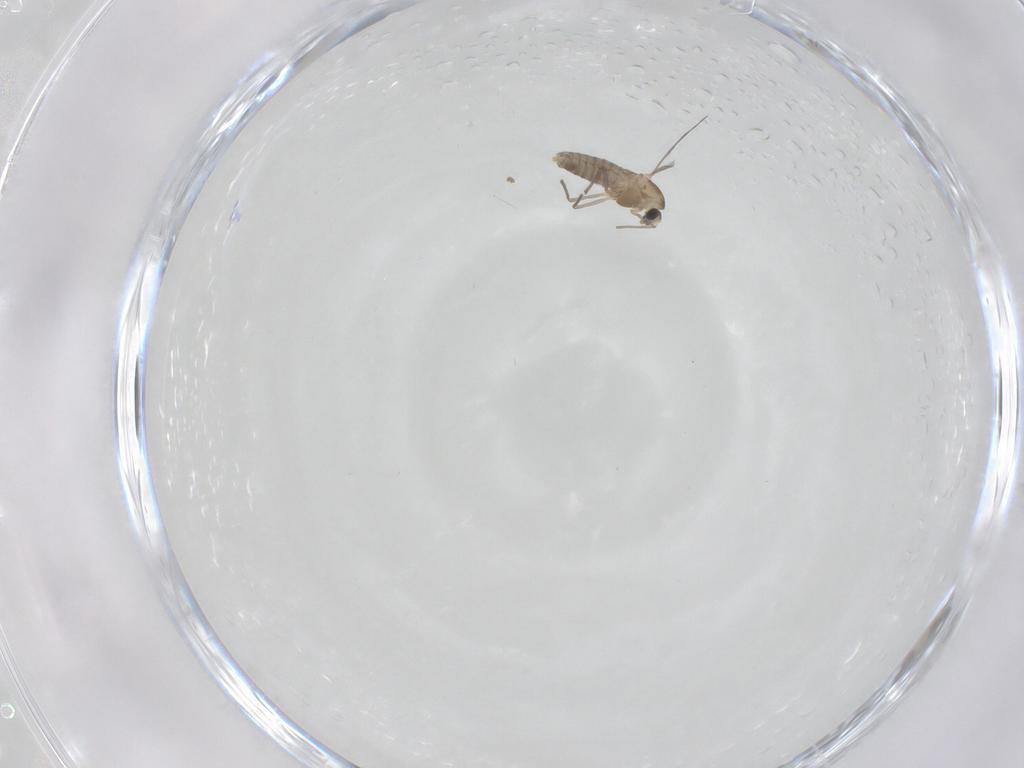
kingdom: Animalia
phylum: Arthropoda
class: Insecta
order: Diptera
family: Chironomidae
